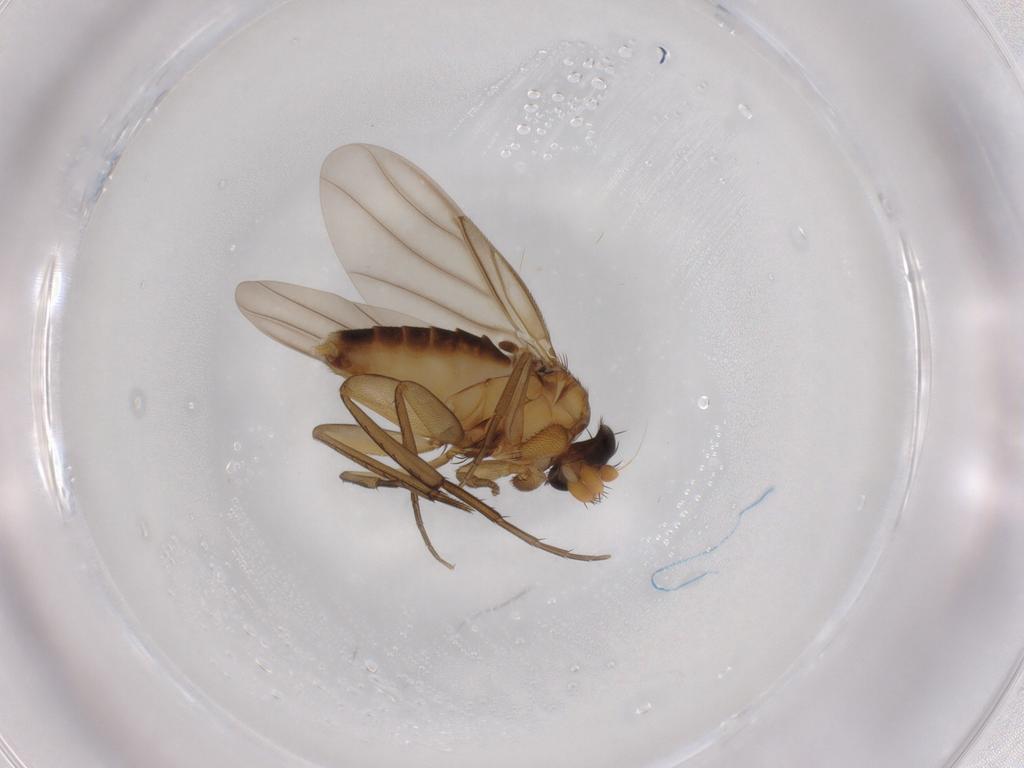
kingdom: Animalia
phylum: Arthropoda
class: Insecta
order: Diptera
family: Phoridae
